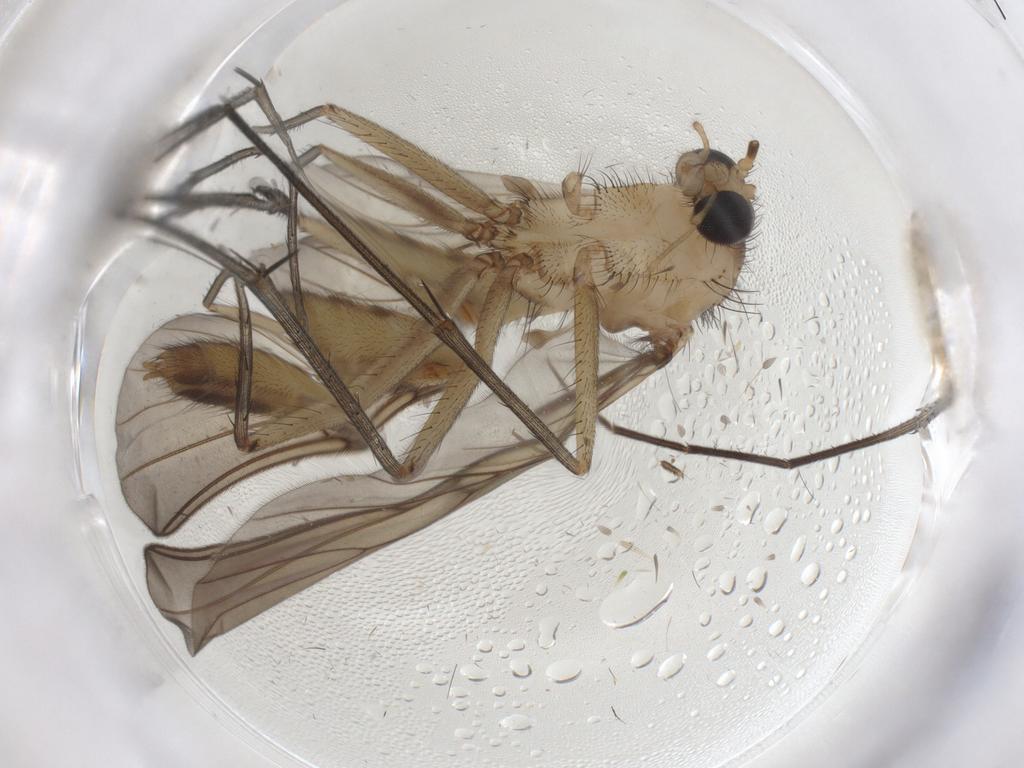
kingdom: Animalia
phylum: Arthropoda
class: Insecta
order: Diptera
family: Mycetophilidae
